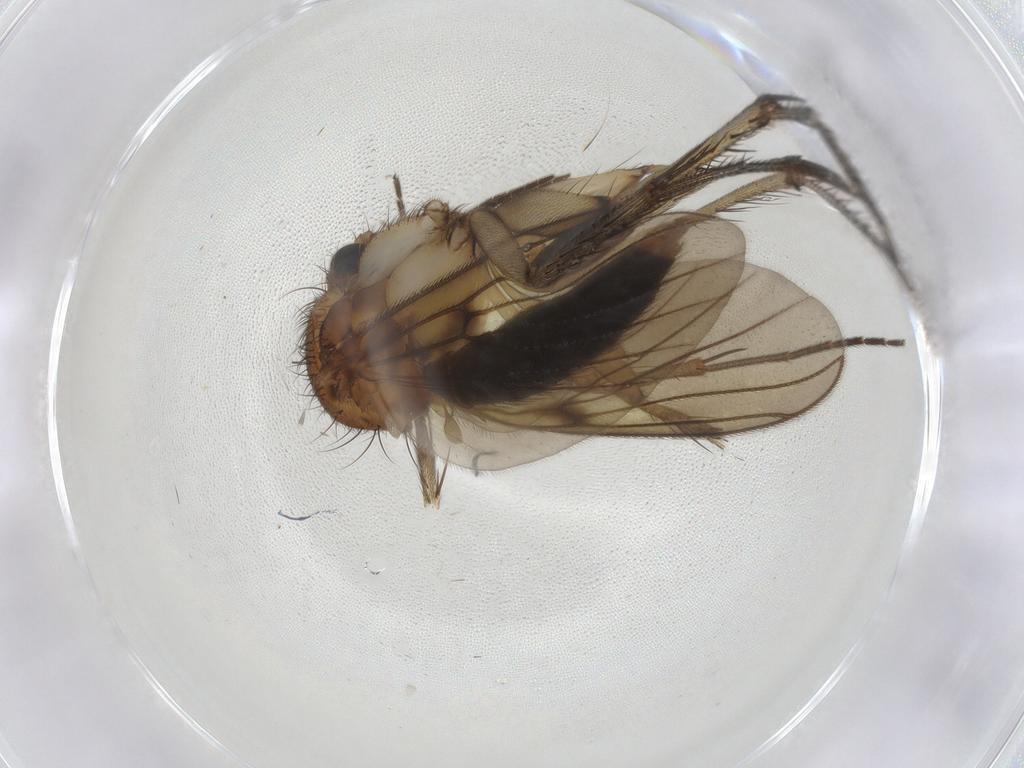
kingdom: Animalia
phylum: Arthropoda
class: Insecta
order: Diptera
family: Mycetophilidae
